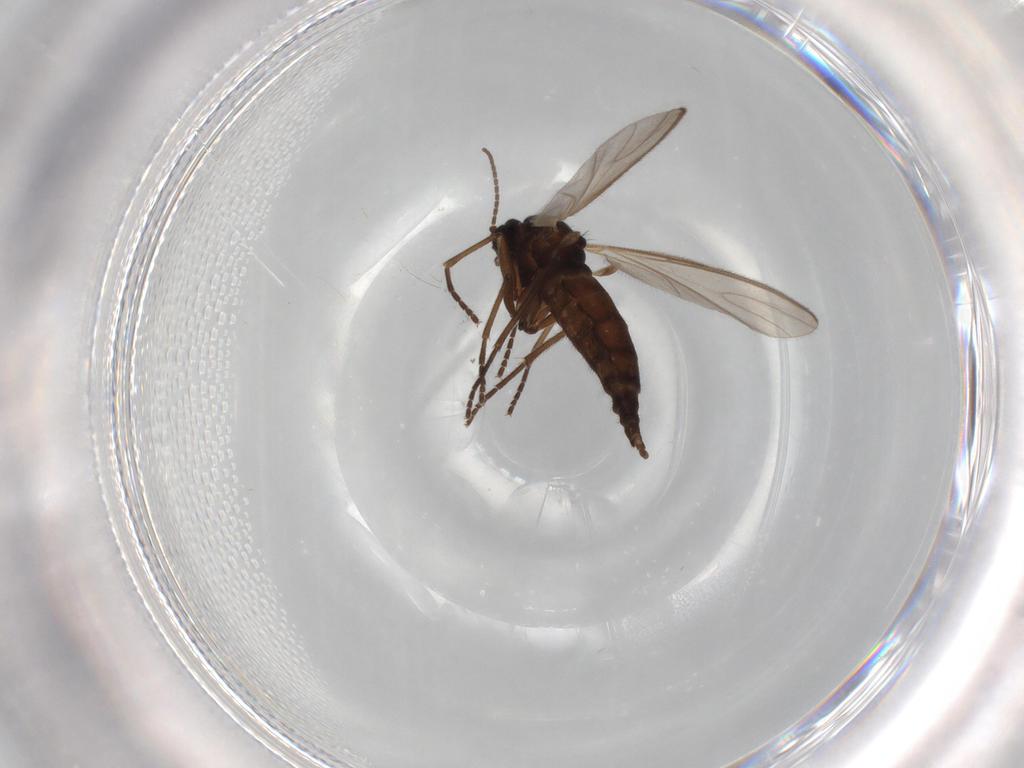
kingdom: Animalia
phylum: Arthropoda
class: Insecta
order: Diptera
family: Sciaridae
